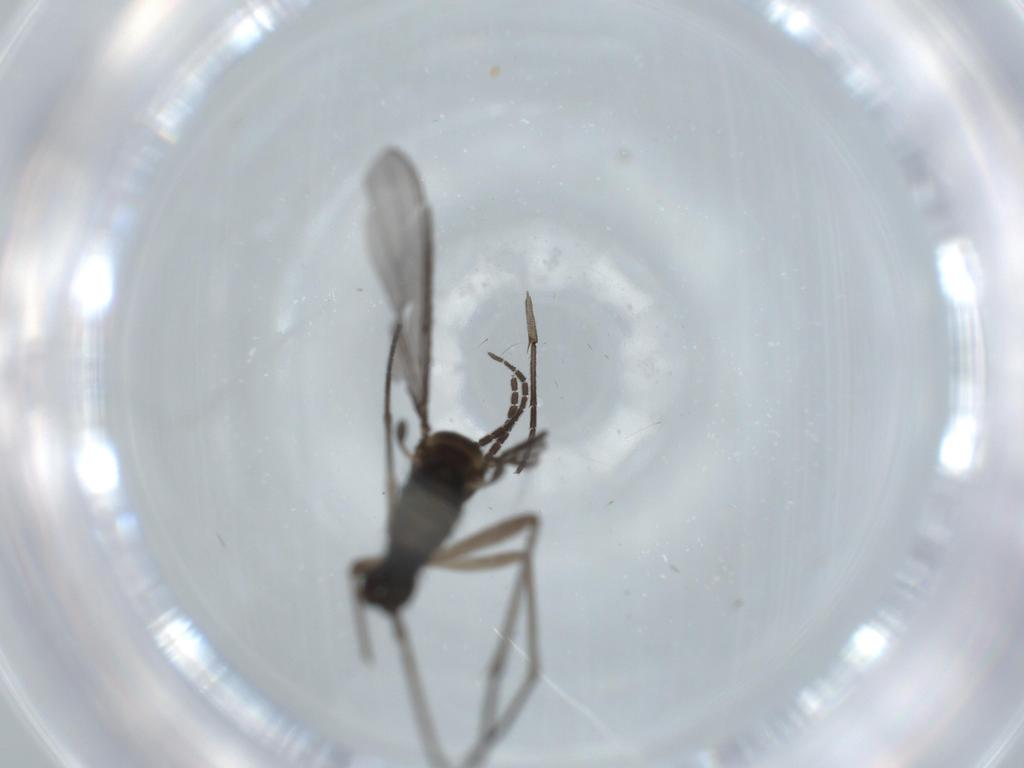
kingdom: Animalia
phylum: Arthropoda
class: Insecta
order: Diptera
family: Sciaridae
